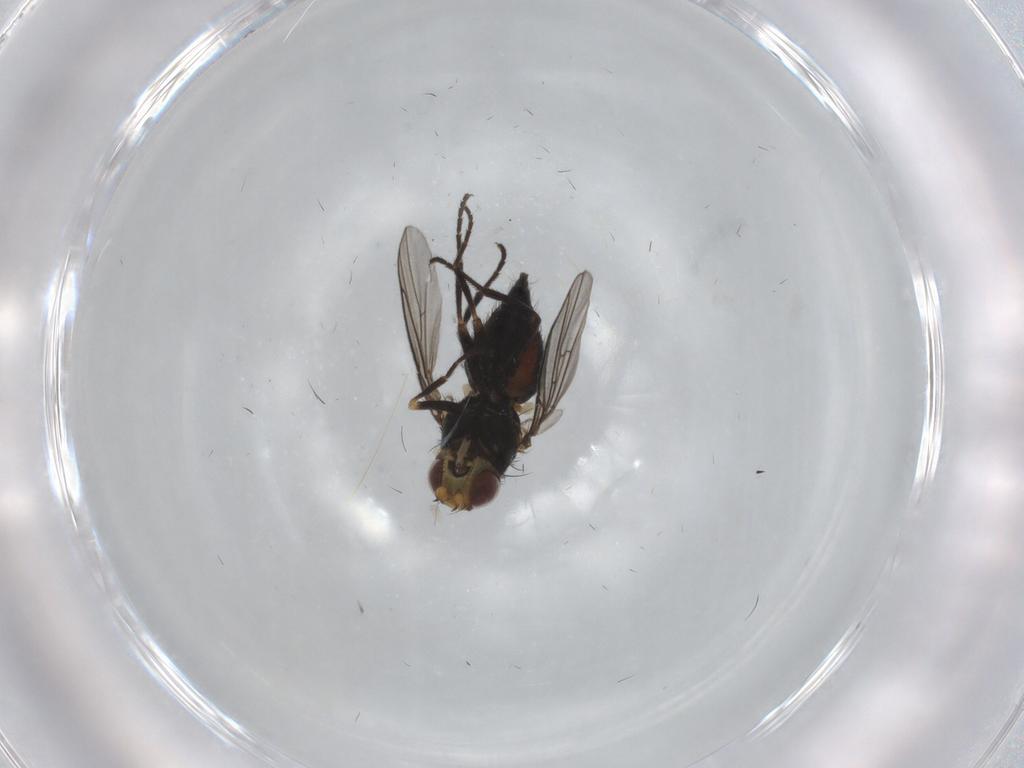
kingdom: Animalia
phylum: Arthropoda
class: Insecta
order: Diptera
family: Agromyzidae
